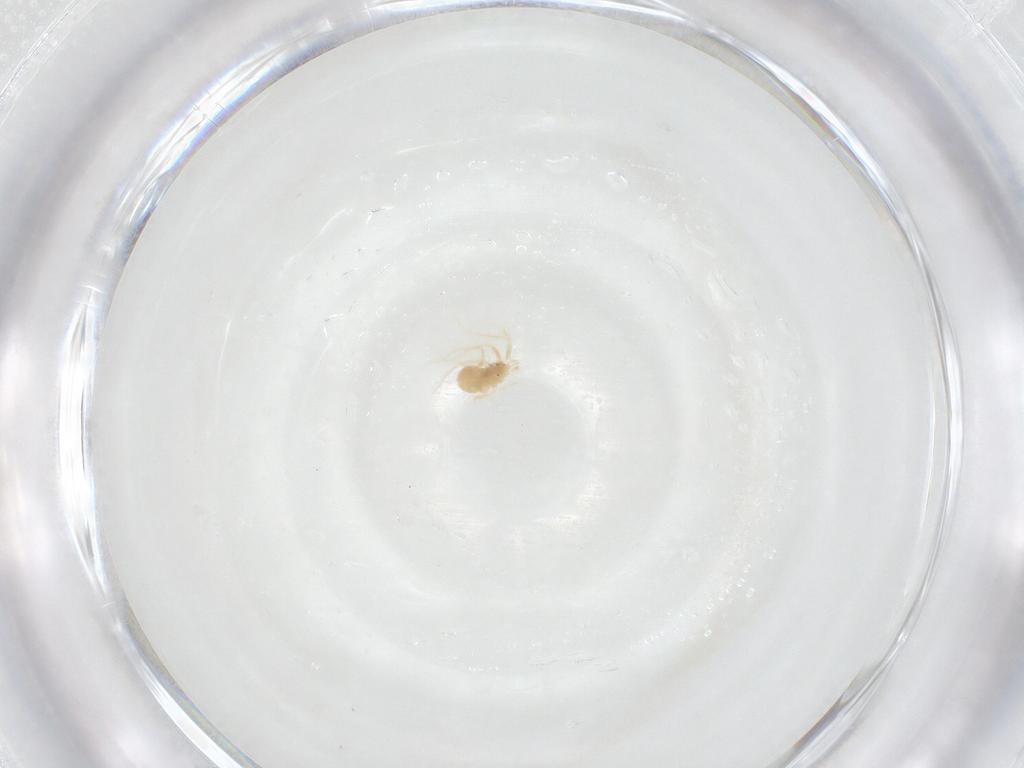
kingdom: Animalia
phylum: Arthropoda
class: Arachnida
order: Trombidiformes
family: Anystidae
